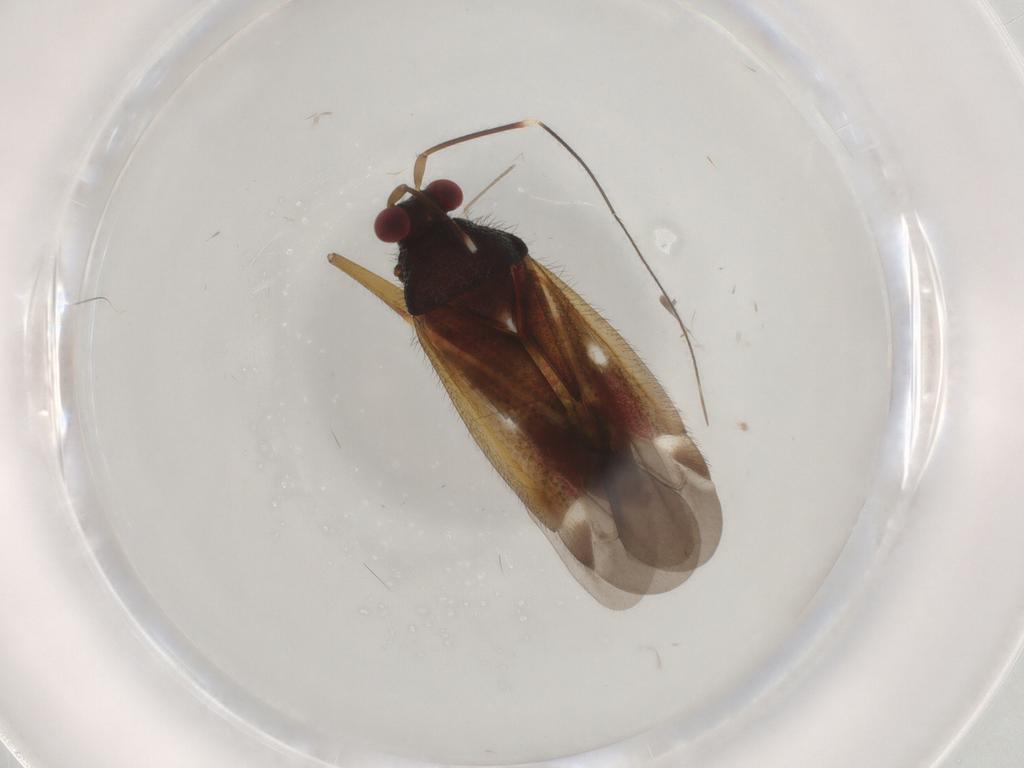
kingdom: Animalia
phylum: Arthropoda
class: Insecta
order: Hemiptera
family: Miridae
